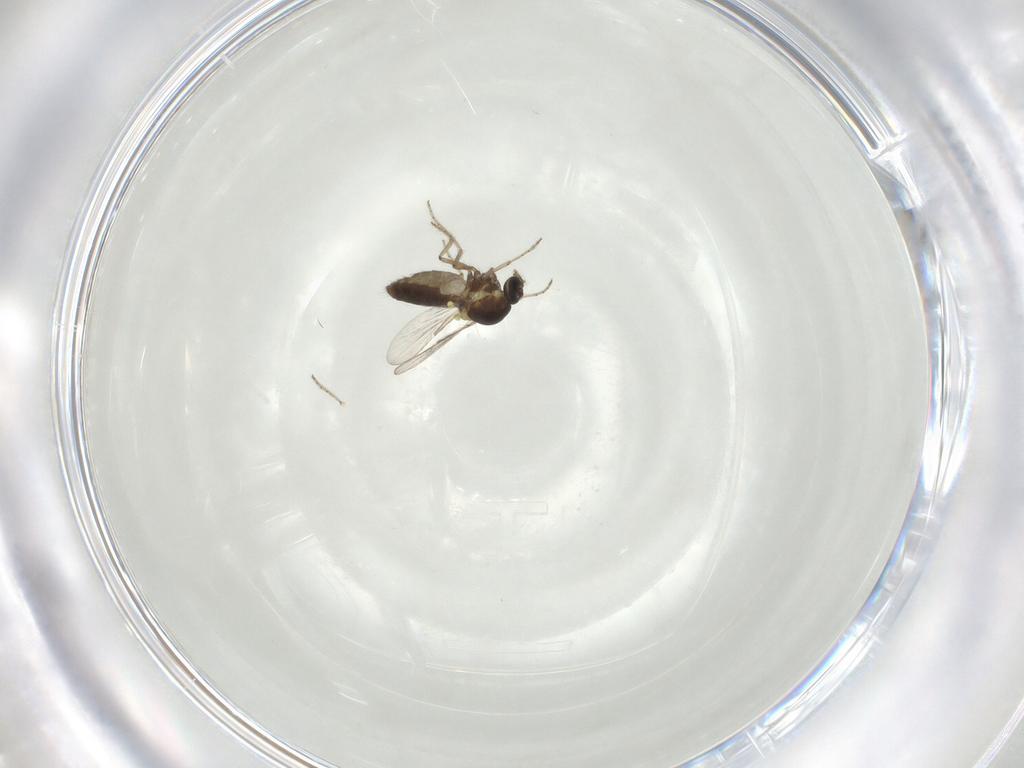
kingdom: Animalia
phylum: Arthropoda
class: Insecta
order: Diptera
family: Ceratopogonidae
